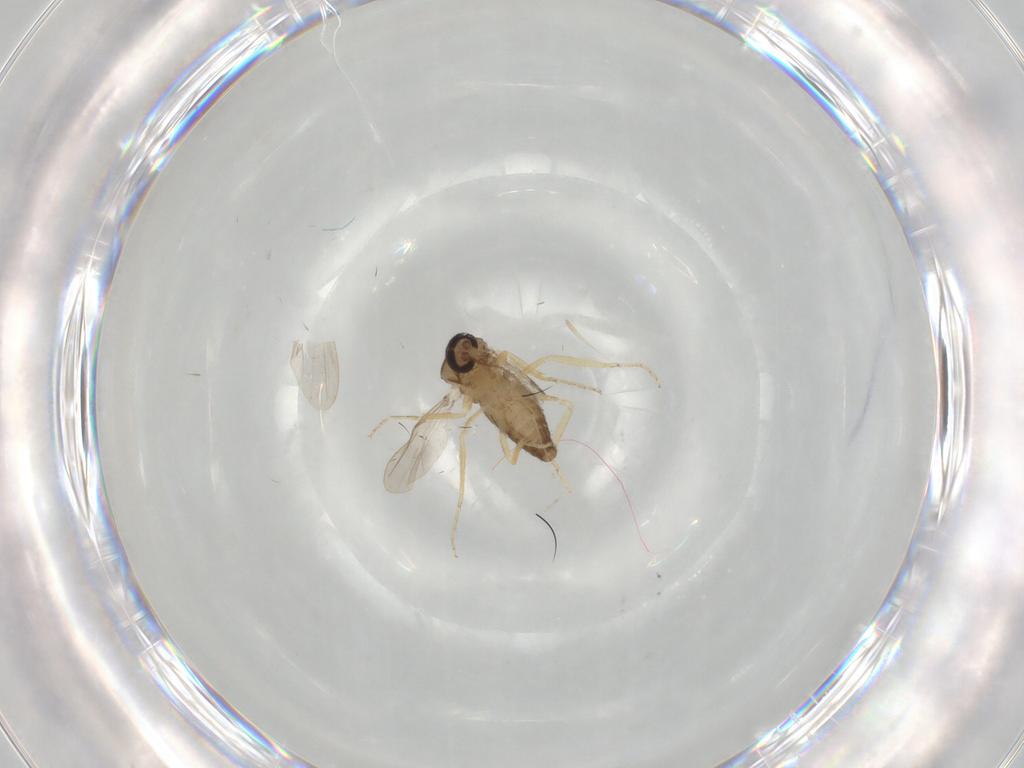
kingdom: Animalia
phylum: Arthropoda
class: Insecta
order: Diptera
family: Ceratopogonidae
